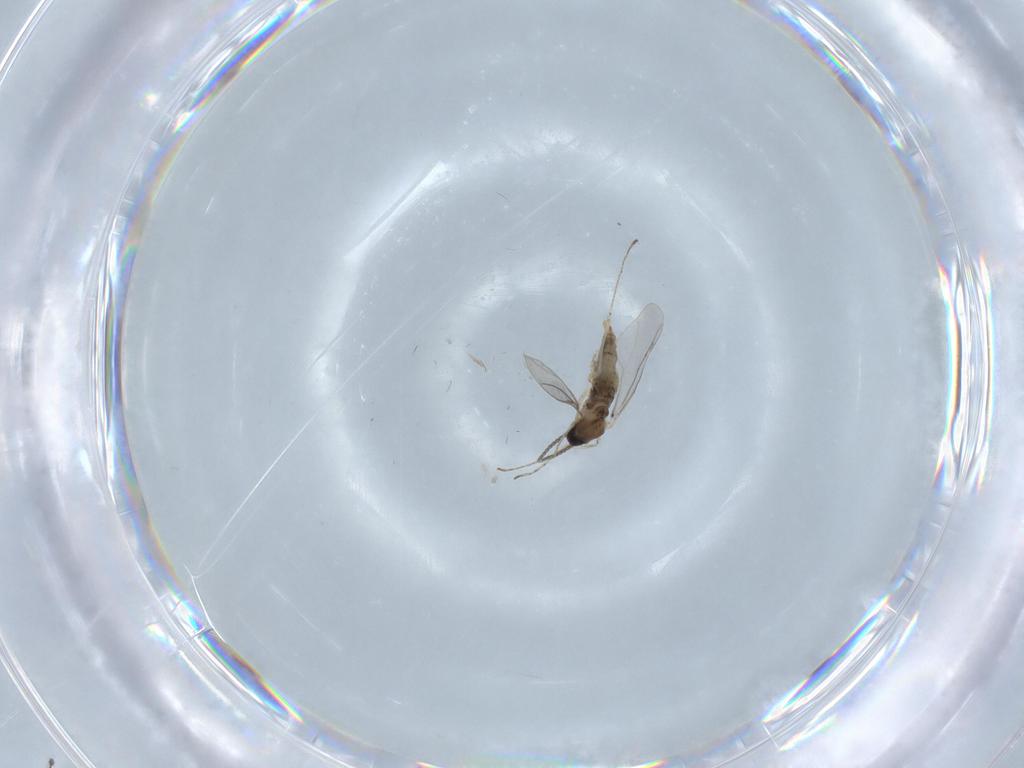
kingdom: Animalia
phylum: Arthropoda
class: Insecta
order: Diptera
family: Cecidomyiidae
